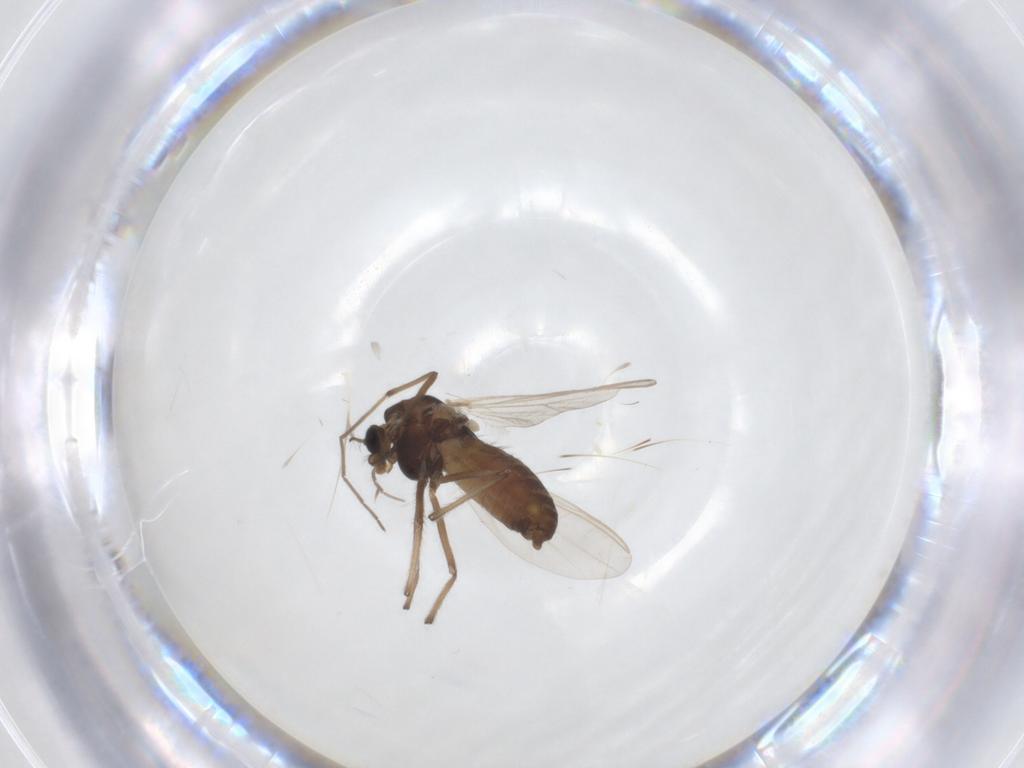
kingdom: Animalia
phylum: Arthropoda
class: Insecta
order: Diptera
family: Chironomidae
